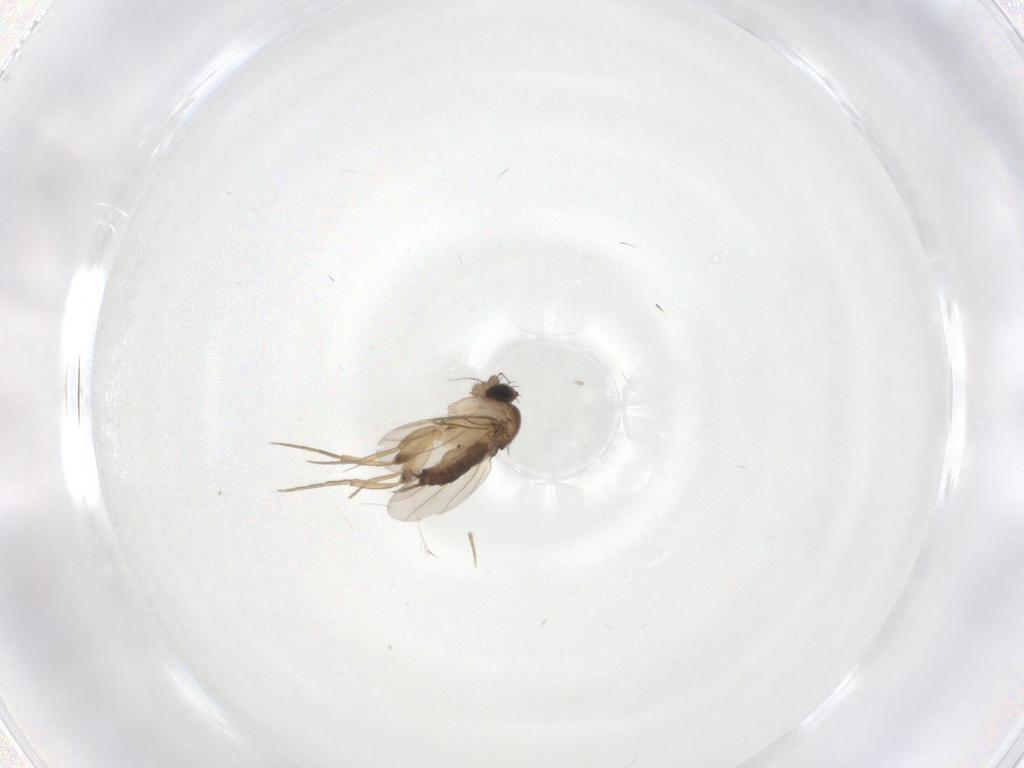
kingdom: Animalia
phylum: Arthropoda
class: Insecta
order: Diptera
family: Phoridae
